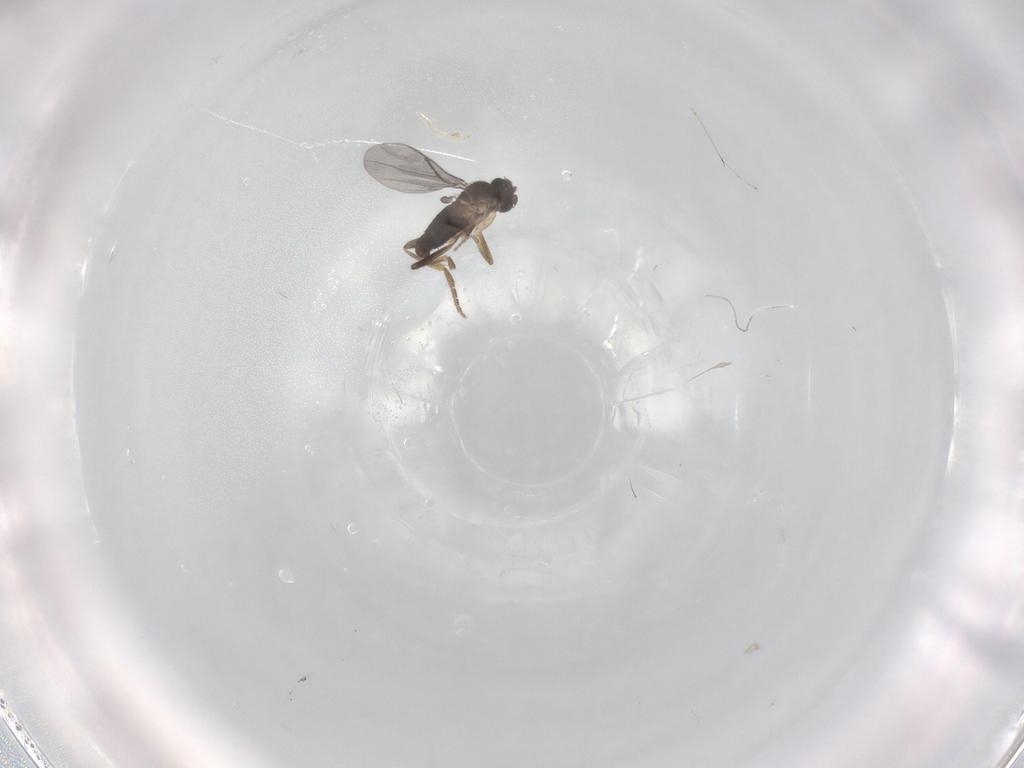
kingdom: Animalia
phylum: Arthropoda
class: Insecta
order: Diptera
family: Cecidomyiidae
